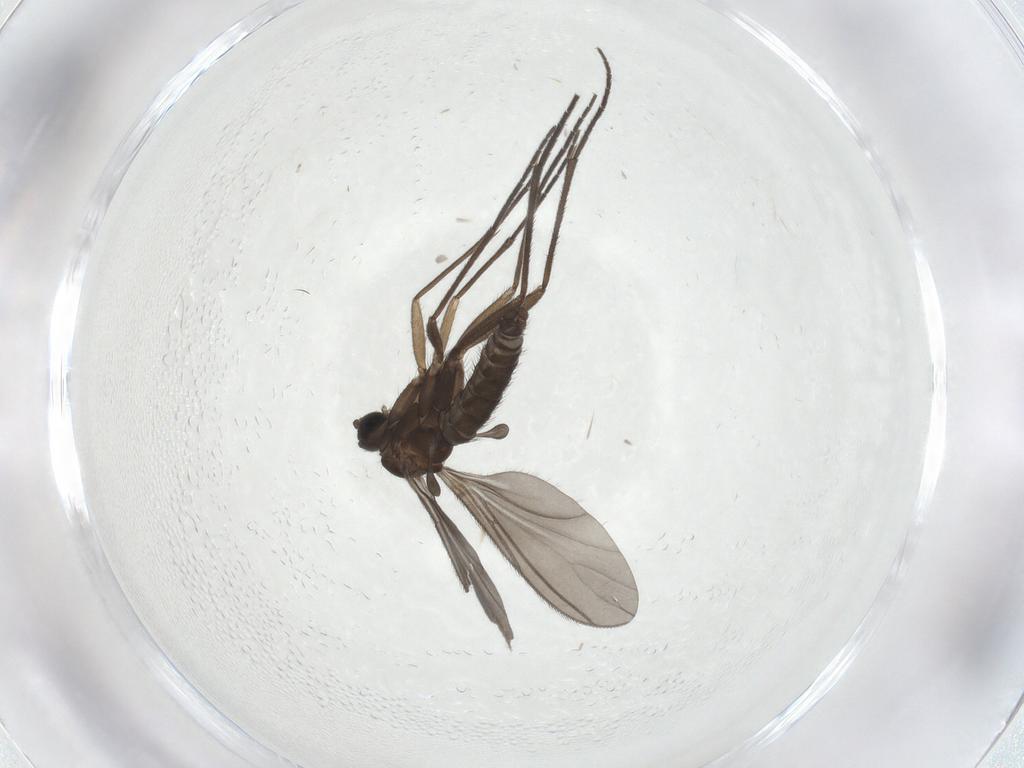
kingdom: Animalia
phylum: Arthropoda
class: Insecta
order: Diptera
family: Sciaridae
